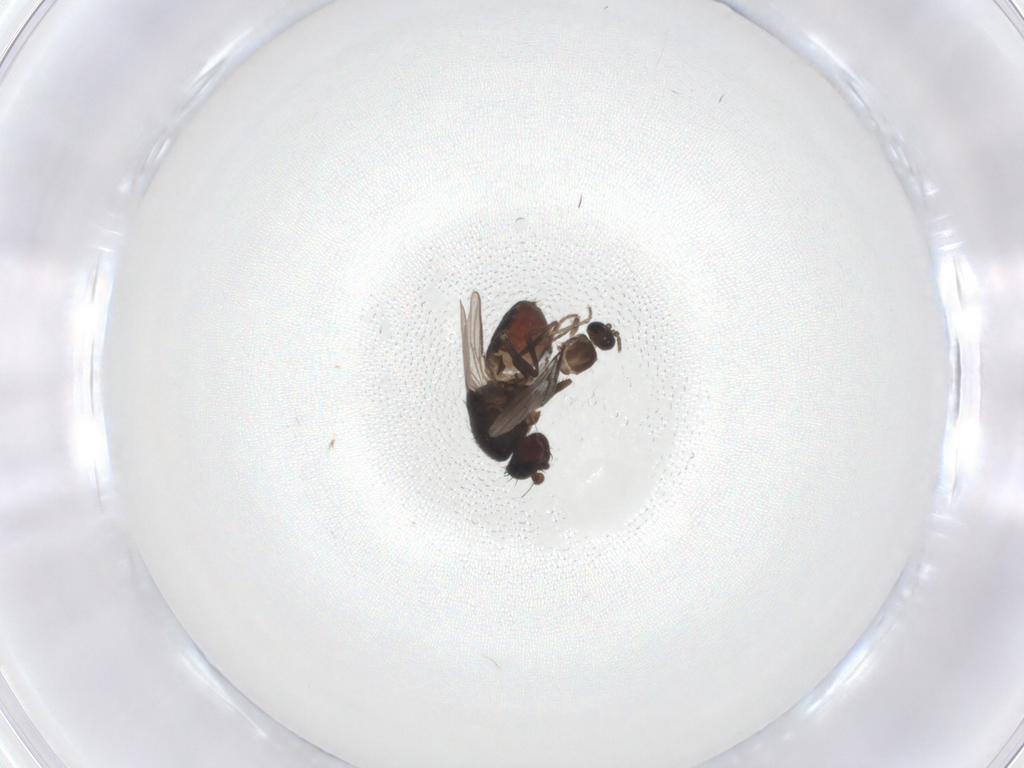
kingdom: Animalia
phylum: Arthropoda
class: Insecta
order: Diptera
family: Sphaeroceridae
